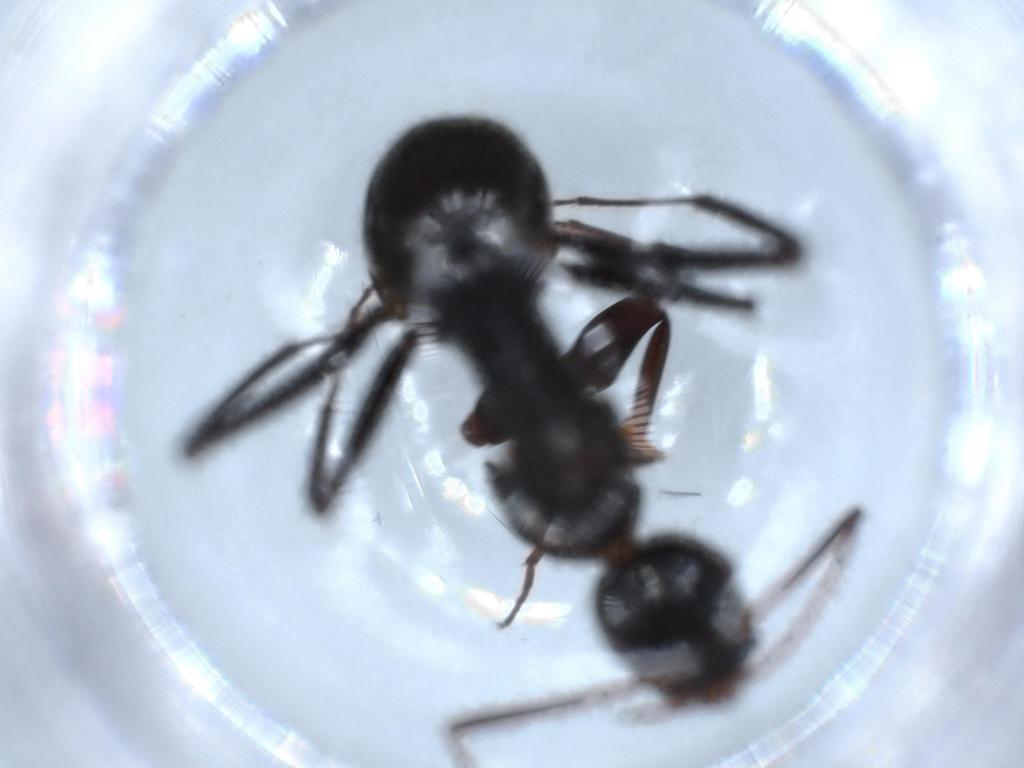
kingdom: Animalia
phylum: Arthropoda
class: Insecta
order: Hymenoptera
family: Formicidae
